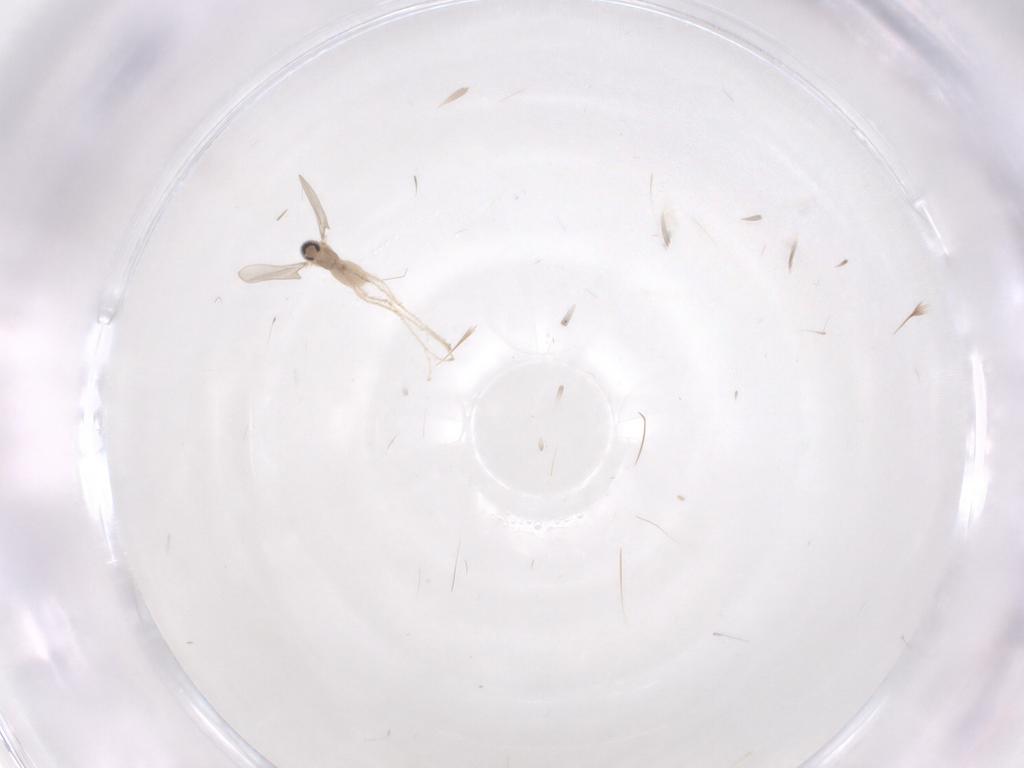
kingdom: Animalia
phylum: Arthropoda
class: Insecta
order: Diptera
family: Cecidomyiidae
